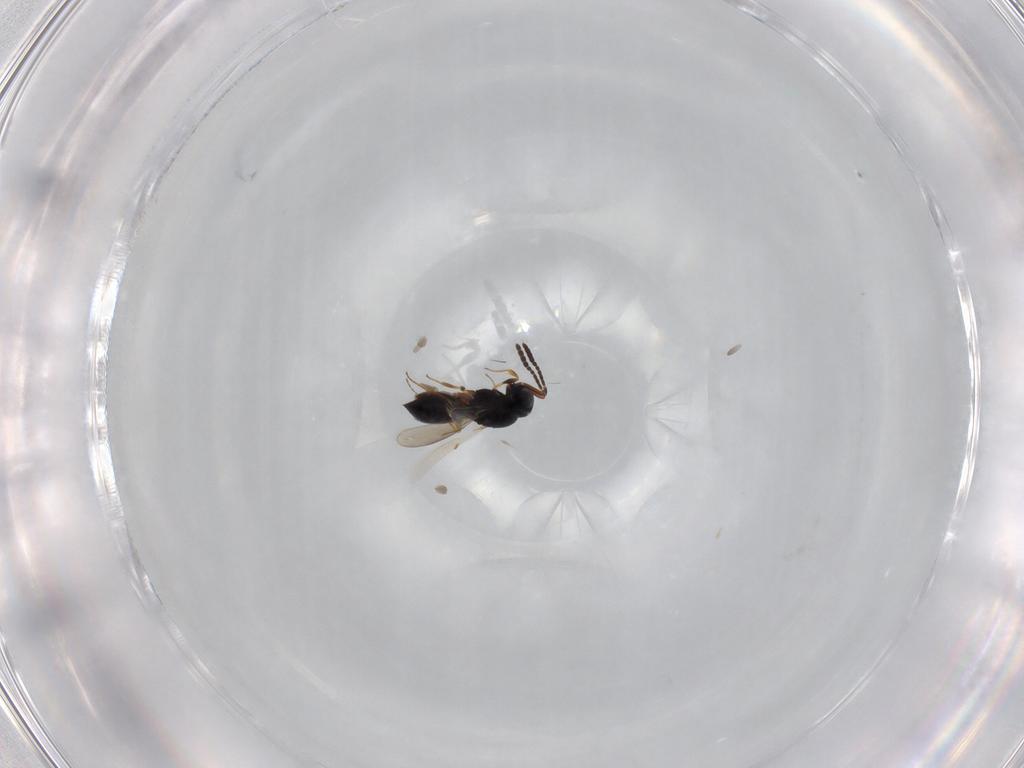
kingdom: Animalia
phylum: Arthropoda
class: Insecta
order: Hymenoptera
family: Scelionidae
